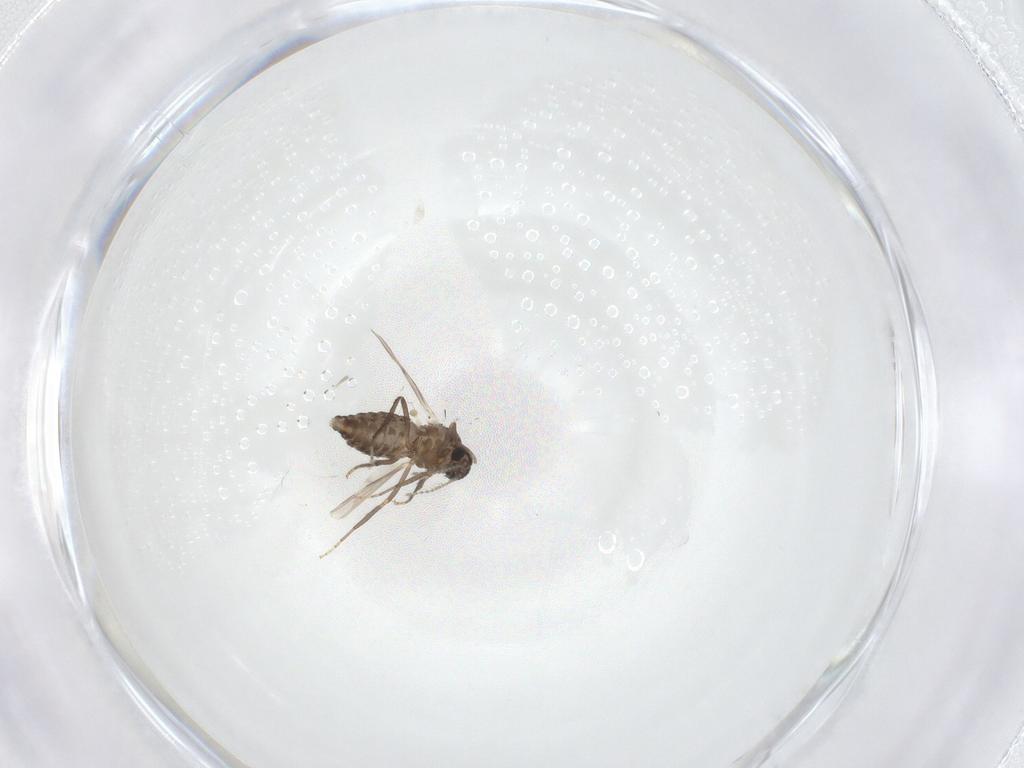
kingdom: Animalia
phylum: Arthropoda
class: Insecta
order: Diptera
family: Ceratopogonidae
